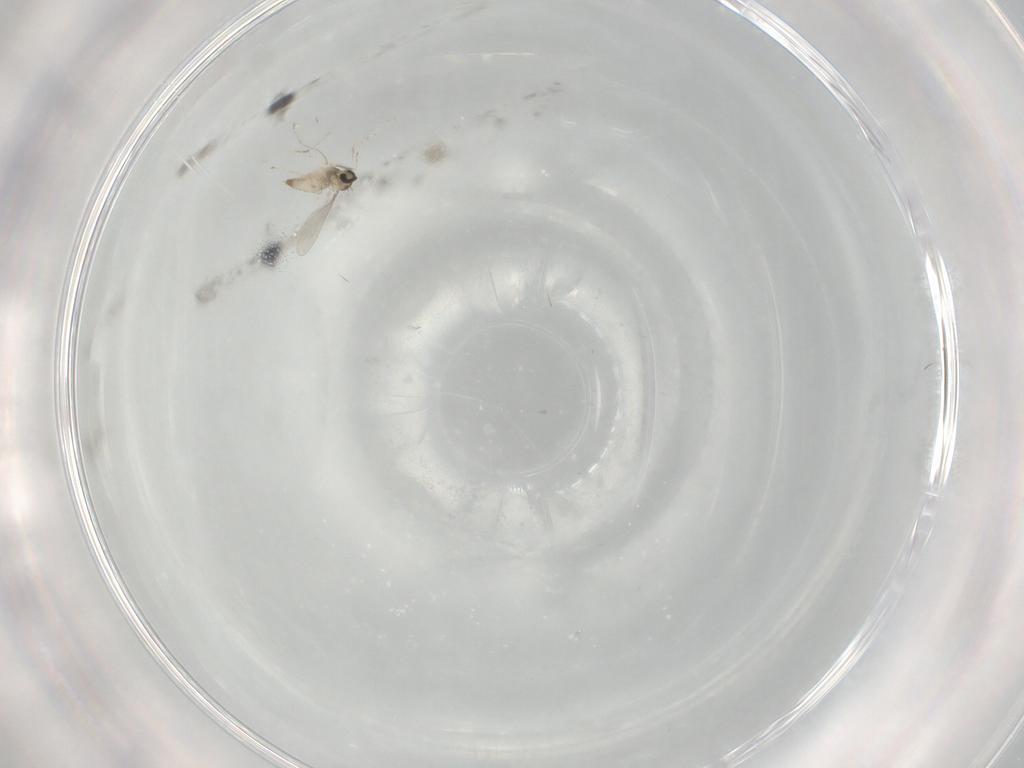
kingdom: Animalia
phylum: Arthropoda
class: Insecta
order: Diptera
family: Cecidomyiidae
